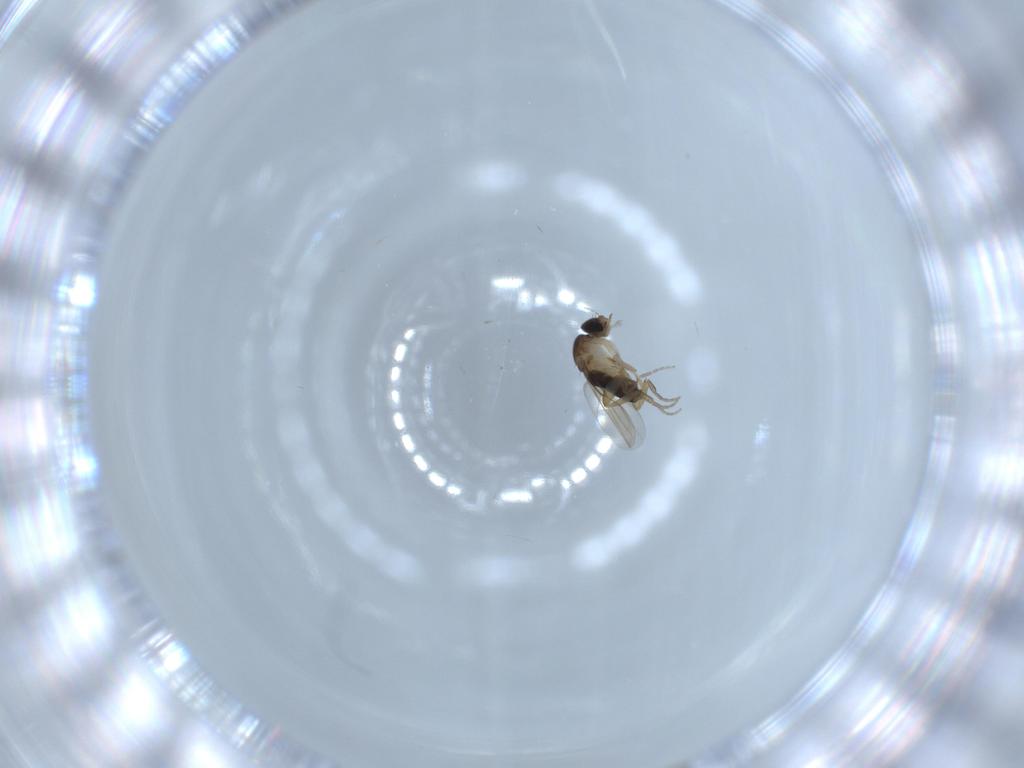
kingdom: Animalia
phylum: Arthropoda
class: Insecta
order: Diptera
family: Phoridae
